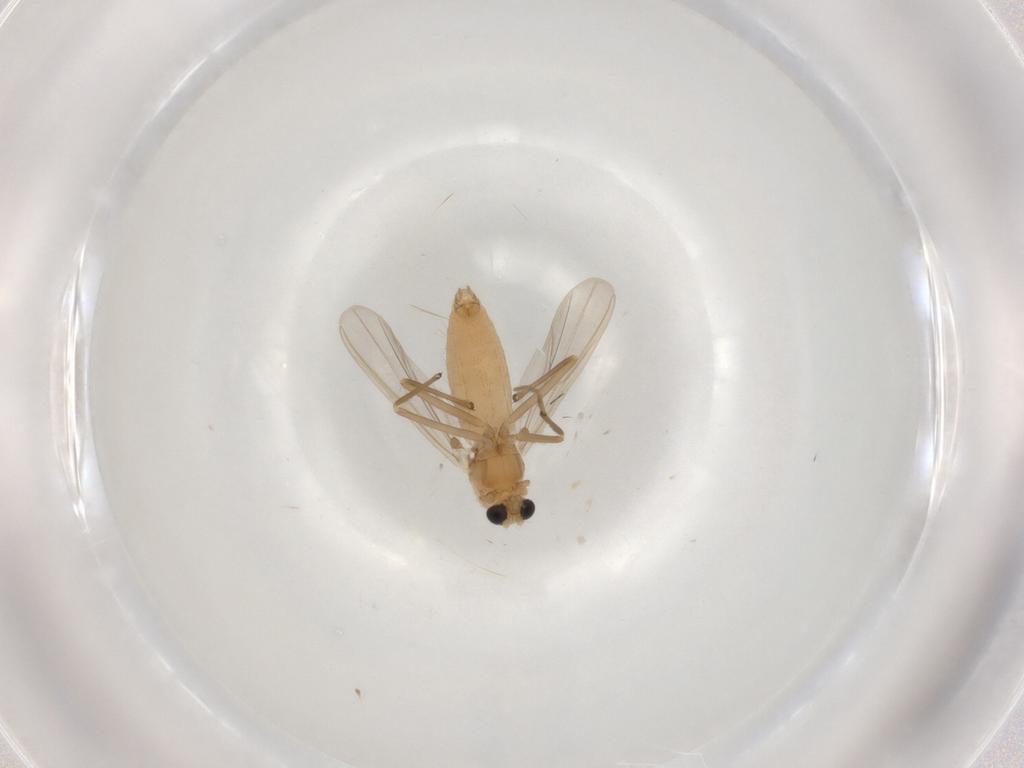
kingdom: Animalia
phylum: Arthropoda
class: Insecta
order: Diptera
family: Chironomidae
